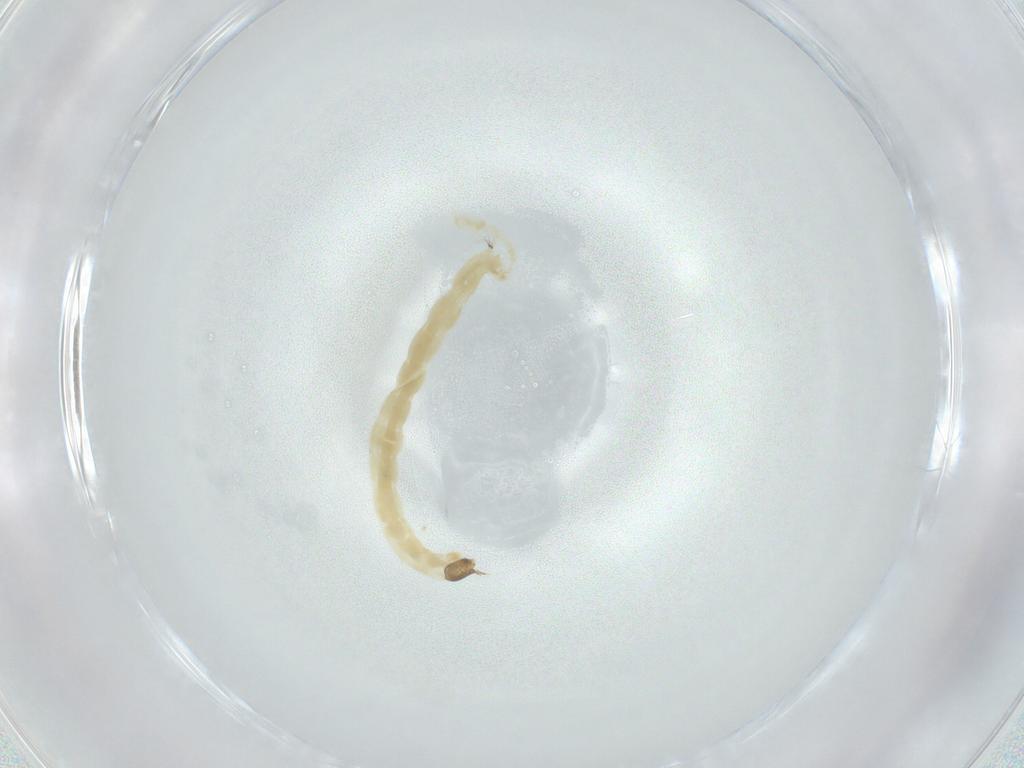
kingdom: Animalia
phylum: Arthropoda
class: Insecta
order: Diptera
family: Chironomidae
